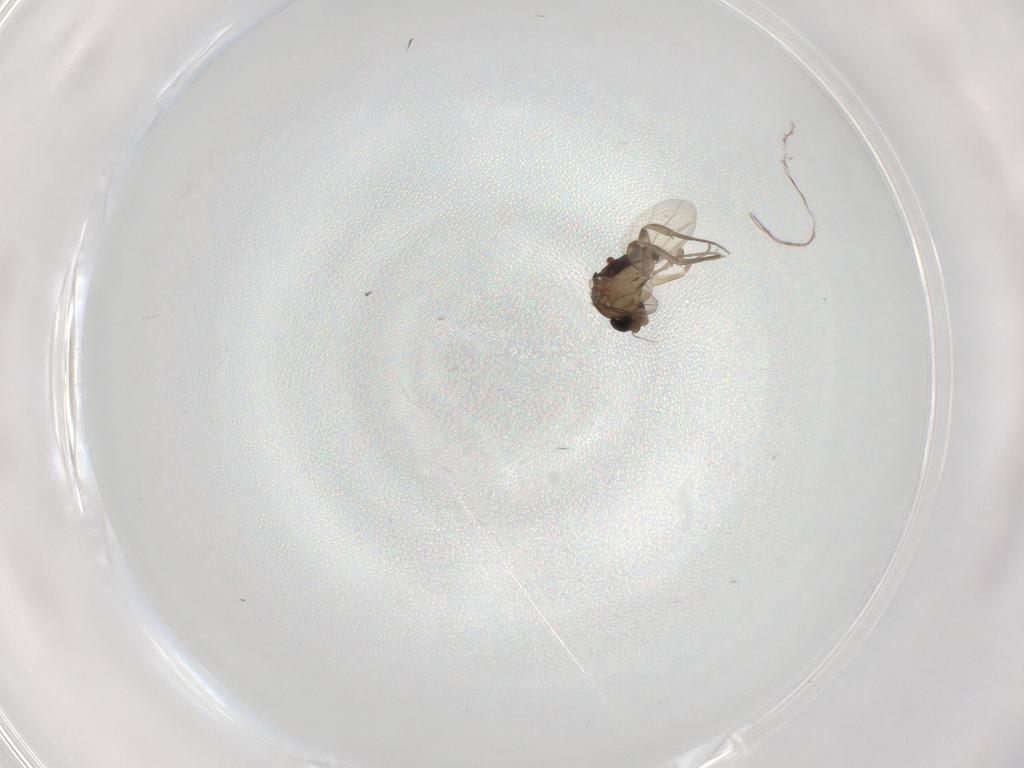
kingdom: Animalia
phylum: Arthropoda
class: Insecta
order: Diptera
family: Phoridae
